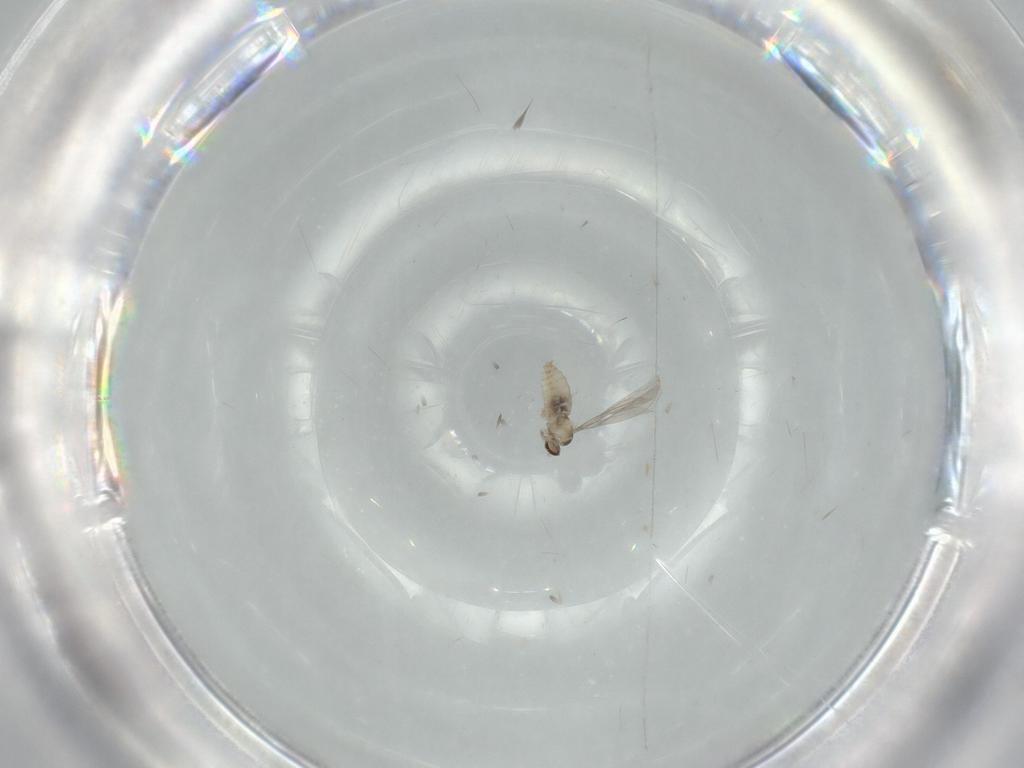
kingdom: Animalia
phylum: Arthropoda
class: Insecta
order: Diptera
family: Cecidomyiidae
